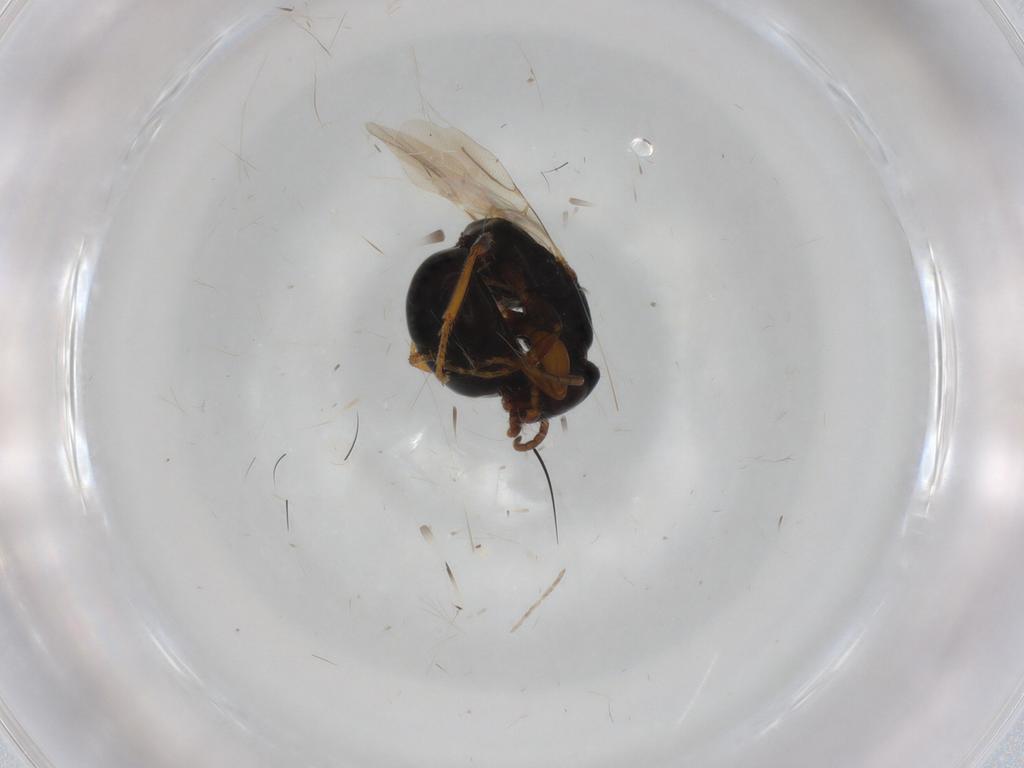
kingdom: Animalia
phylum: Arthropoda
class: Insecta
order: Hymenoptera
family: Bethylidae
